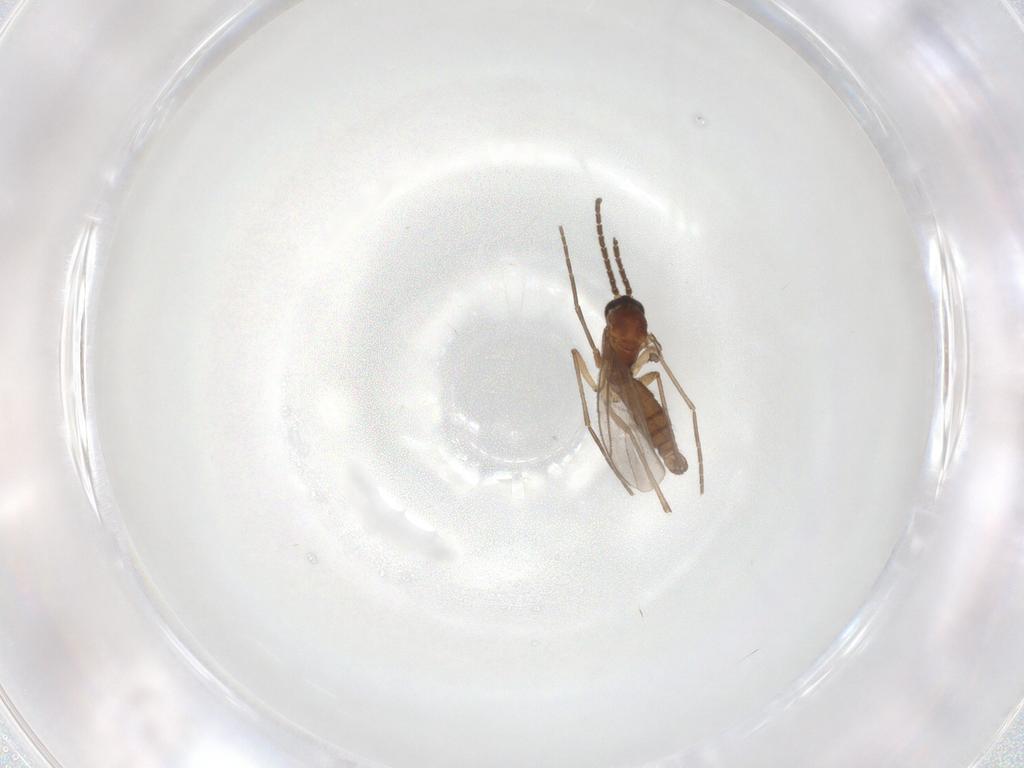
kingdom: Animalia
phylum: Arthropoda
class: Insecta
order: Diptera
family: Sciaridae
